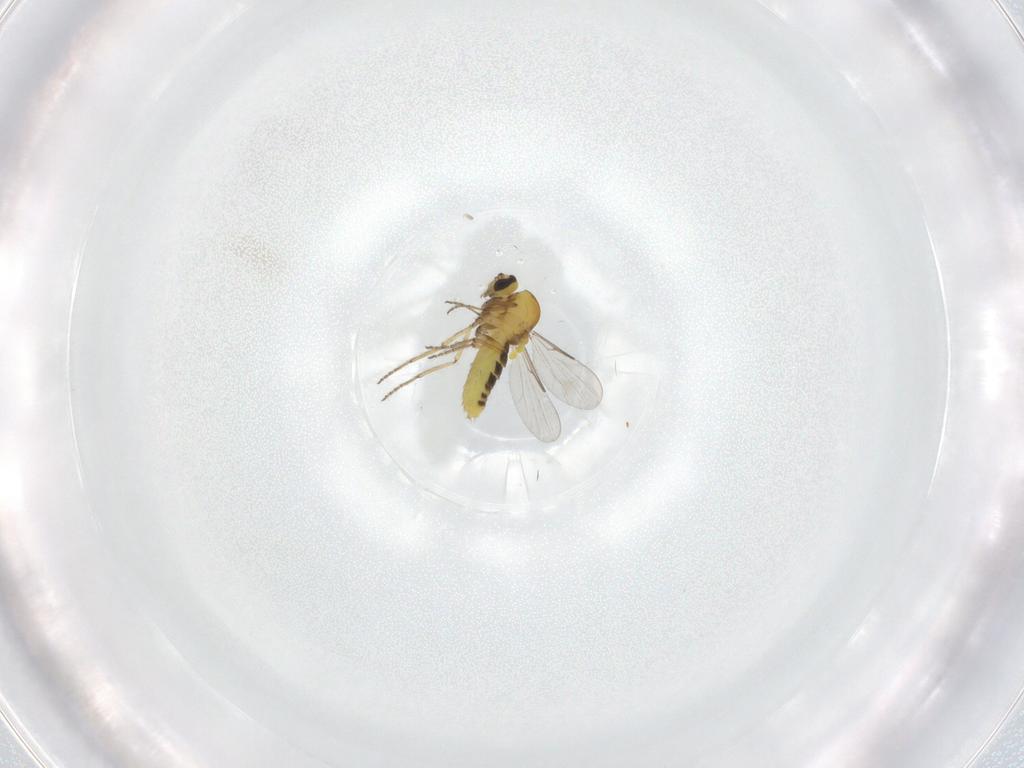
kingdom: Animalia
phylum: Arthropoda
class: Insecta
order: Diptera
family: Ceratopogonidae
